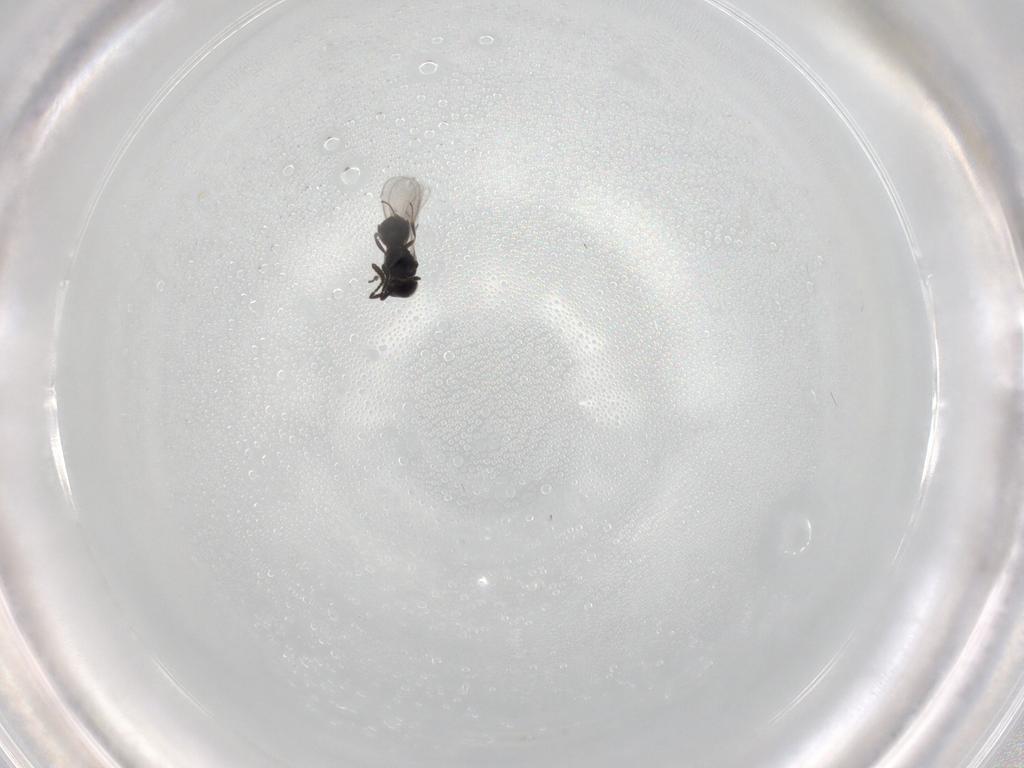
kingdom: Animalia
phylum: Arthropoda
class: Insecta
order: Hymenoptera
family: Scelionidae
